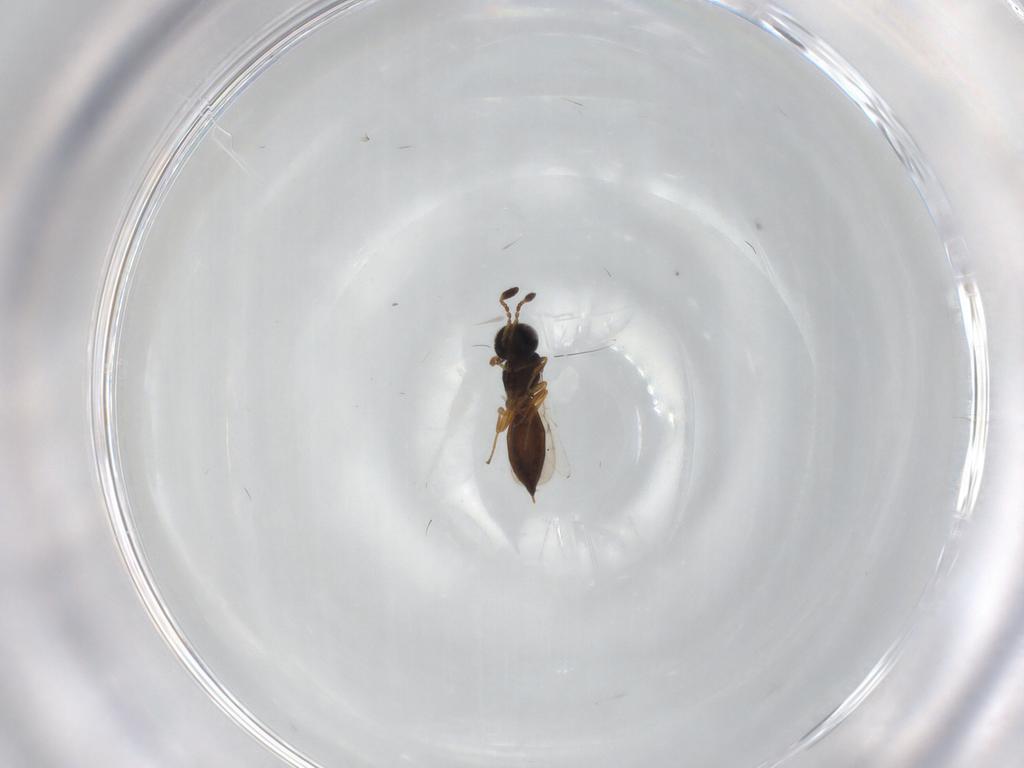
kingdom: Animalia
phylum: Arthropoda
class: Insecta
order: Hymenoptera
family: Scelionidae
